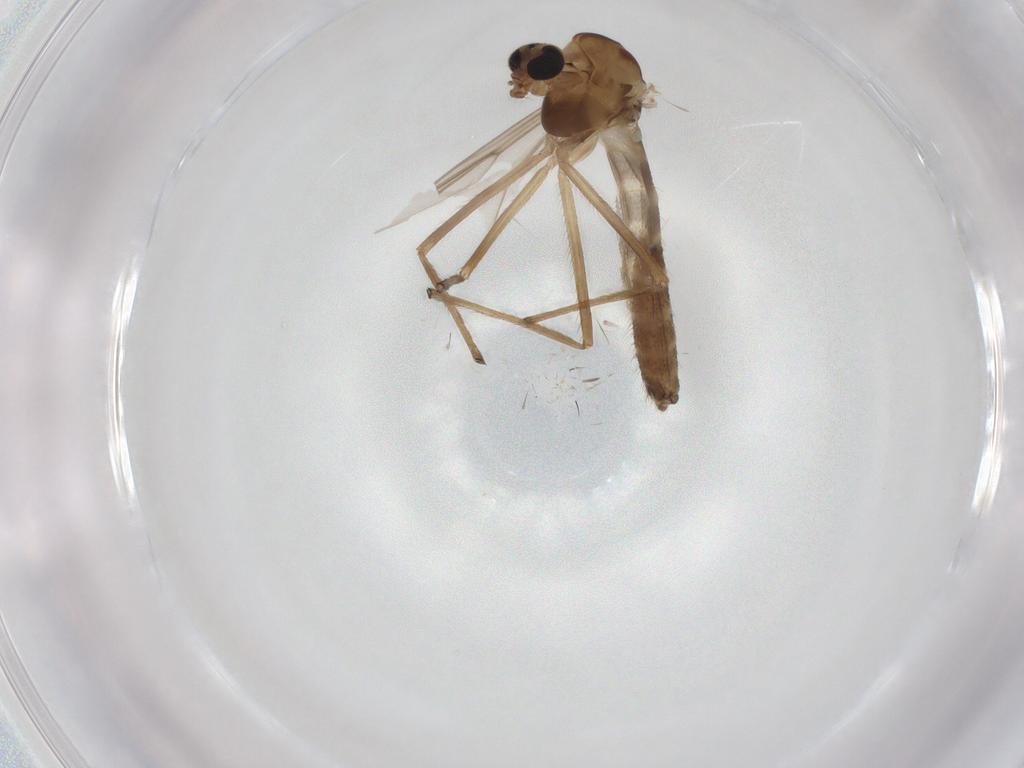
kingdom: Animalia
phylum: Arthropoda
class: Insecta
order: Diptera
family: Chironomidae
